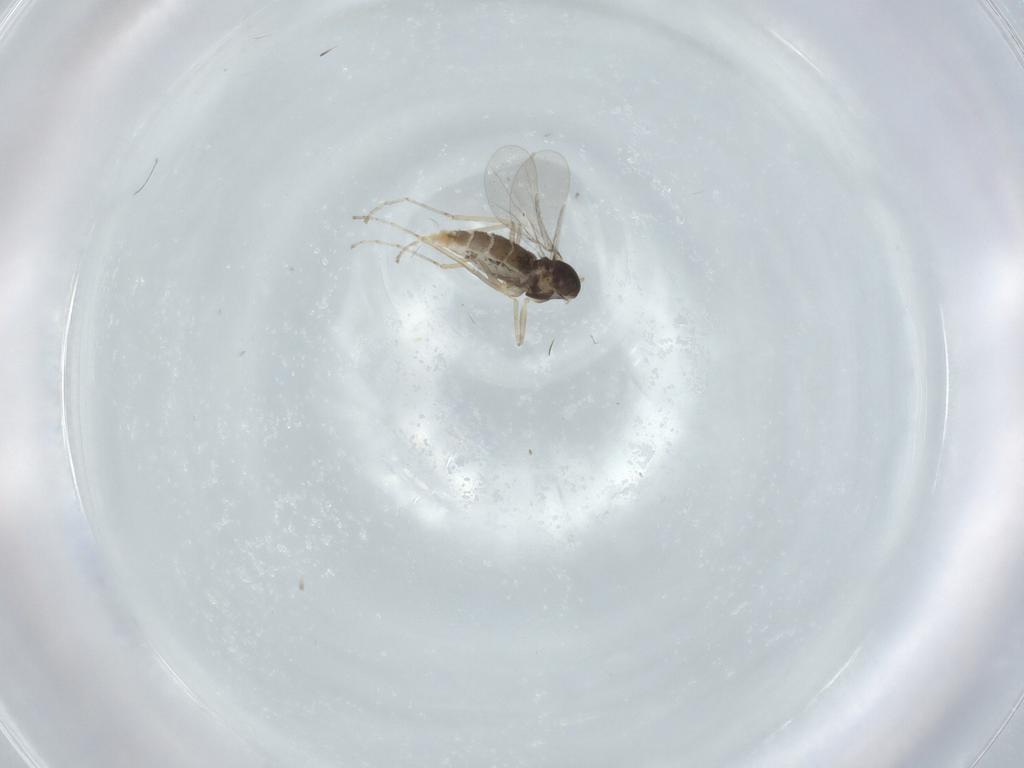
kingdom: Animalia
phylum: Arthropoda
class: Insecta
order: Diptera
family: Cecidomyiidae
